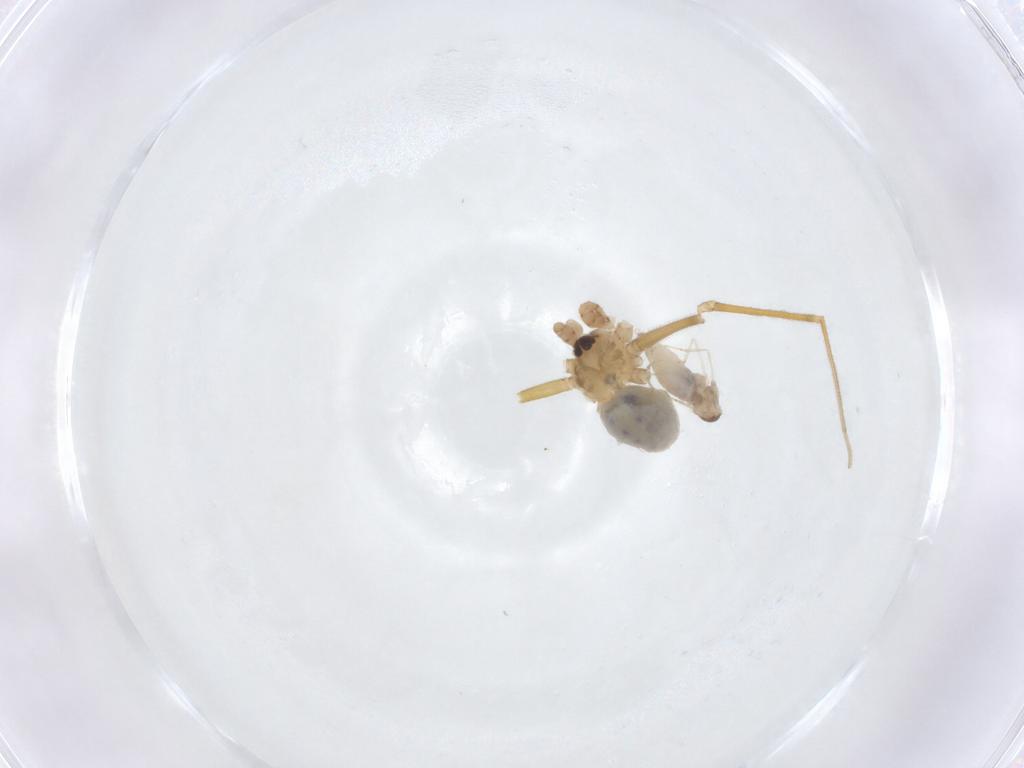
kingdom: Animalia
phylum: Arthropoda
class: Insecta
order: Diptera
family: Cecidomyiidae
